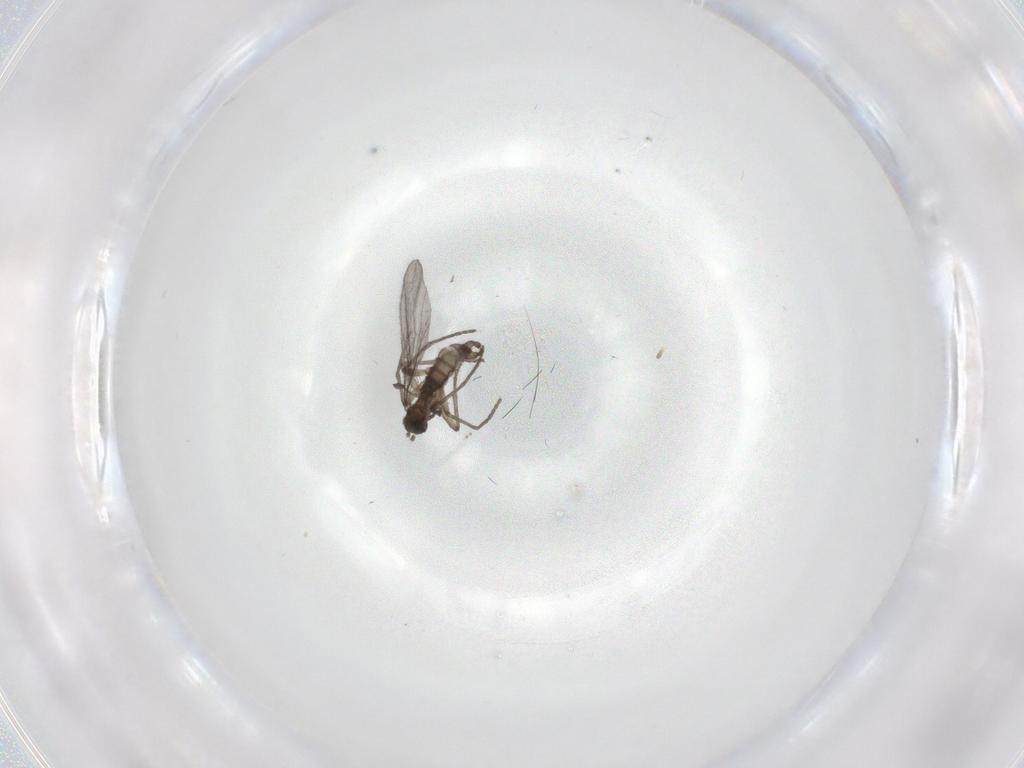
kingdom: Animalia
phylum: Arthropoda
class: Insecta
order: Diptera
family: Sciaridae
